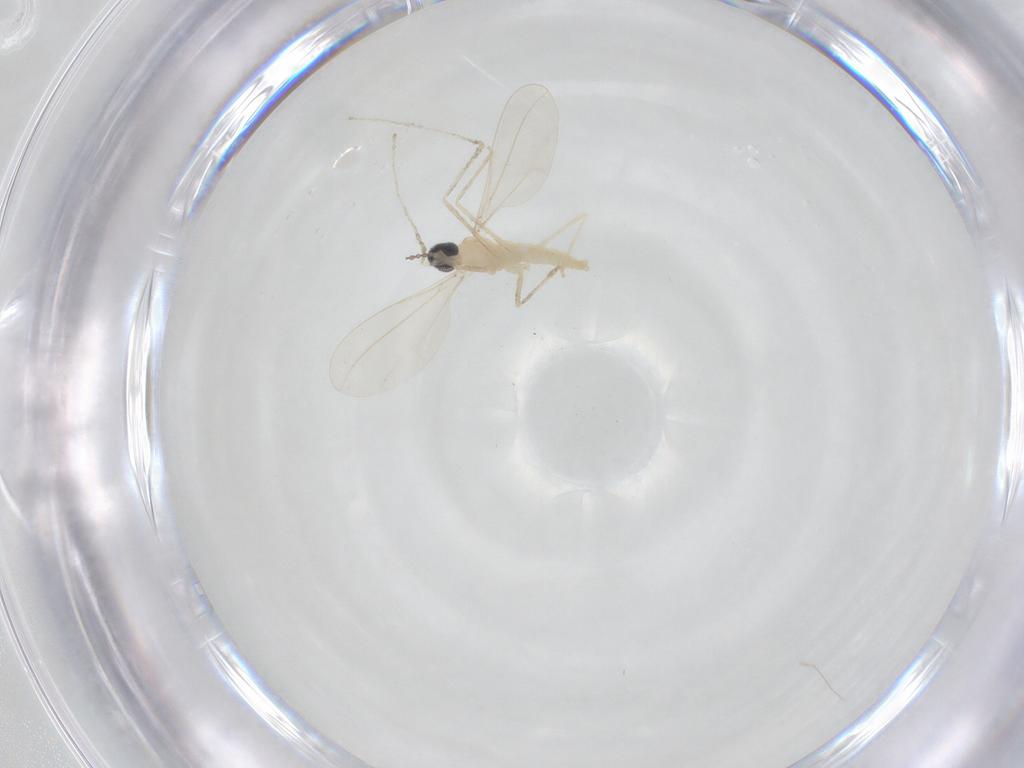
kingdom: Animalia
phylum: Arthropoda
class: Insecta
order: Diptera
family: Cecidomyiidae
